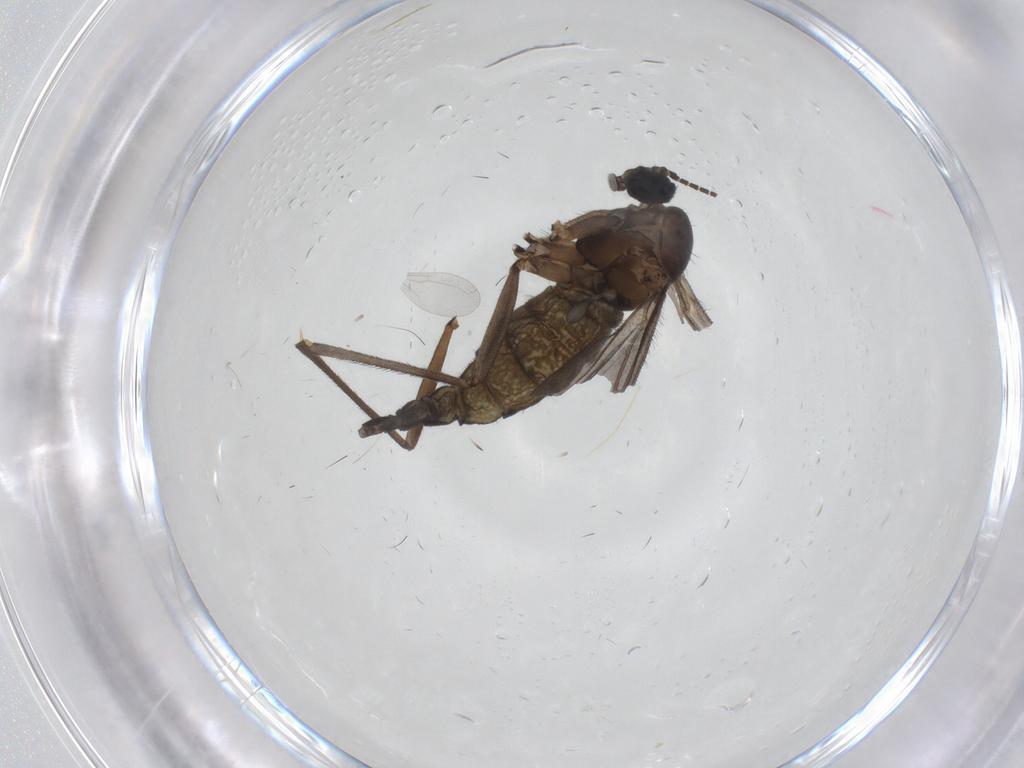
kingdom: Animalia
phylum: Arthropoda
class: Insecta
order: Diptera
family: Sciaridae
